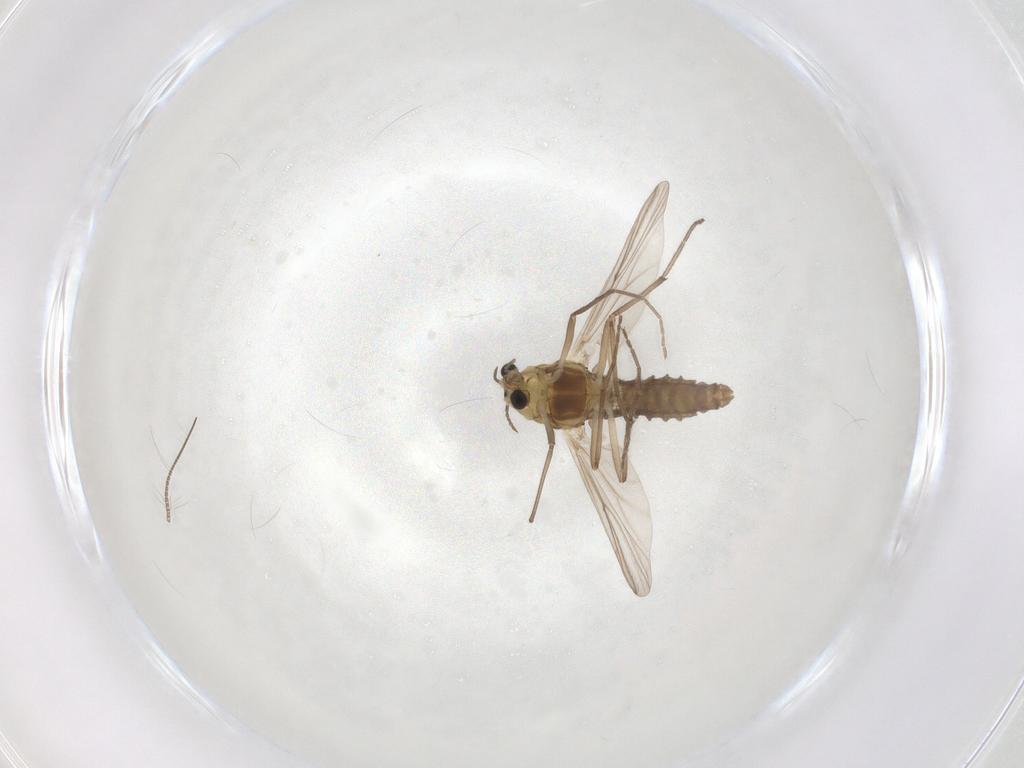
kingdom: Animalia
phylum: Arthropoda
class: Insecta
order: Diptera
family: Chironomidae
